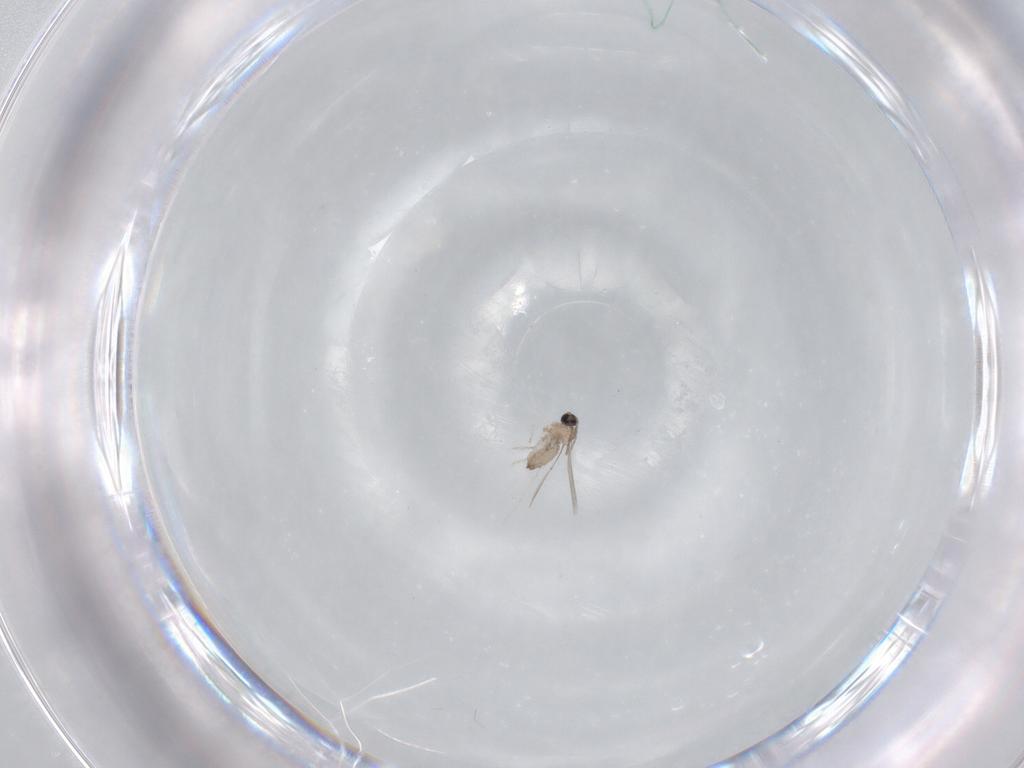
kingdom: Animalia
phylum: Arthropoda
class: Insecta
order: Diptera
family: Cecidomyiidae
